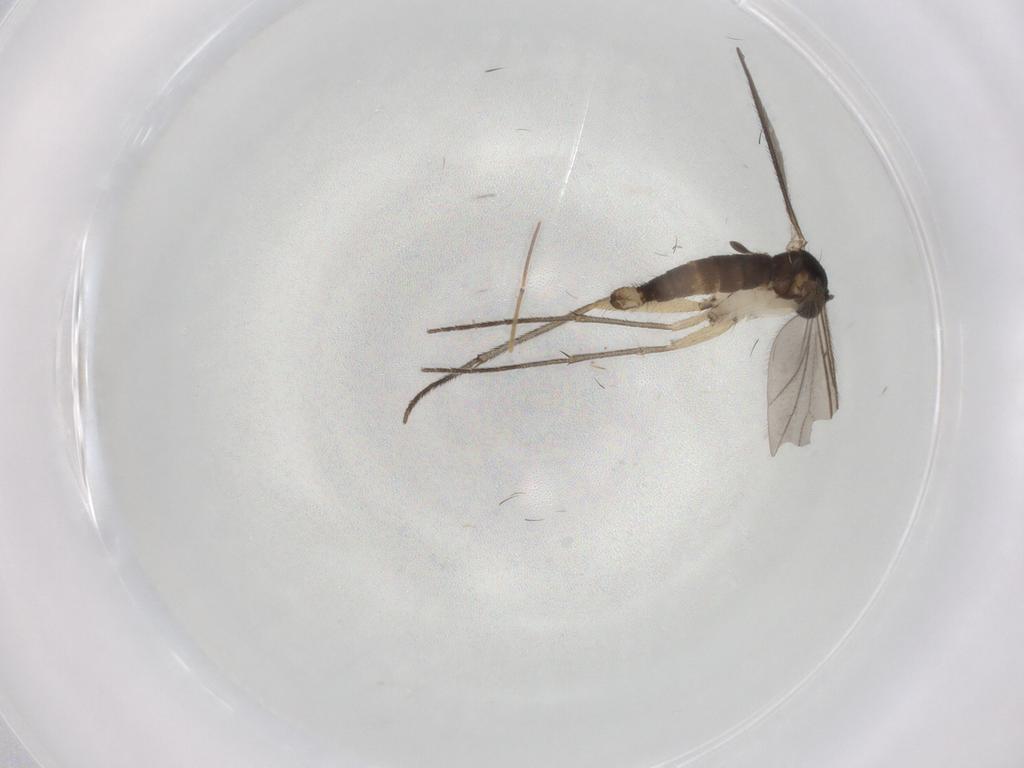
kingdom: Animalia
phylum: Arthropoda
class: Insecta
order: Diptera
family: Sciaridae
